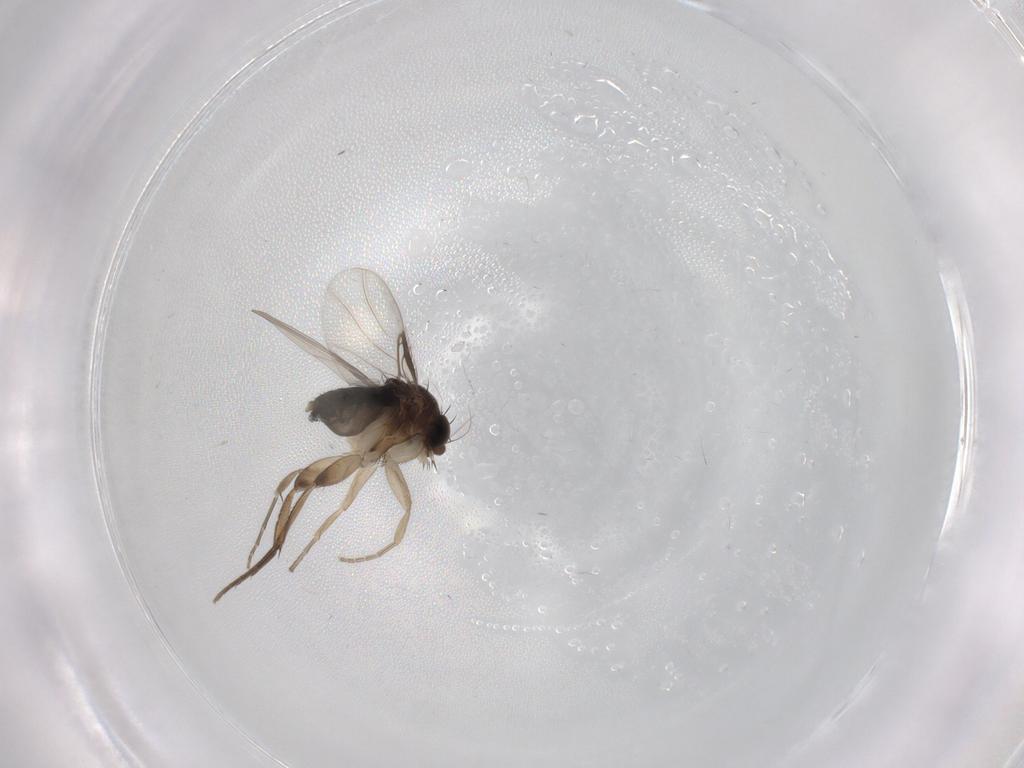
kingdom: Animalia
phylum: Arthropoda
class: Insecta
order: Diptera
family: Phoridae
